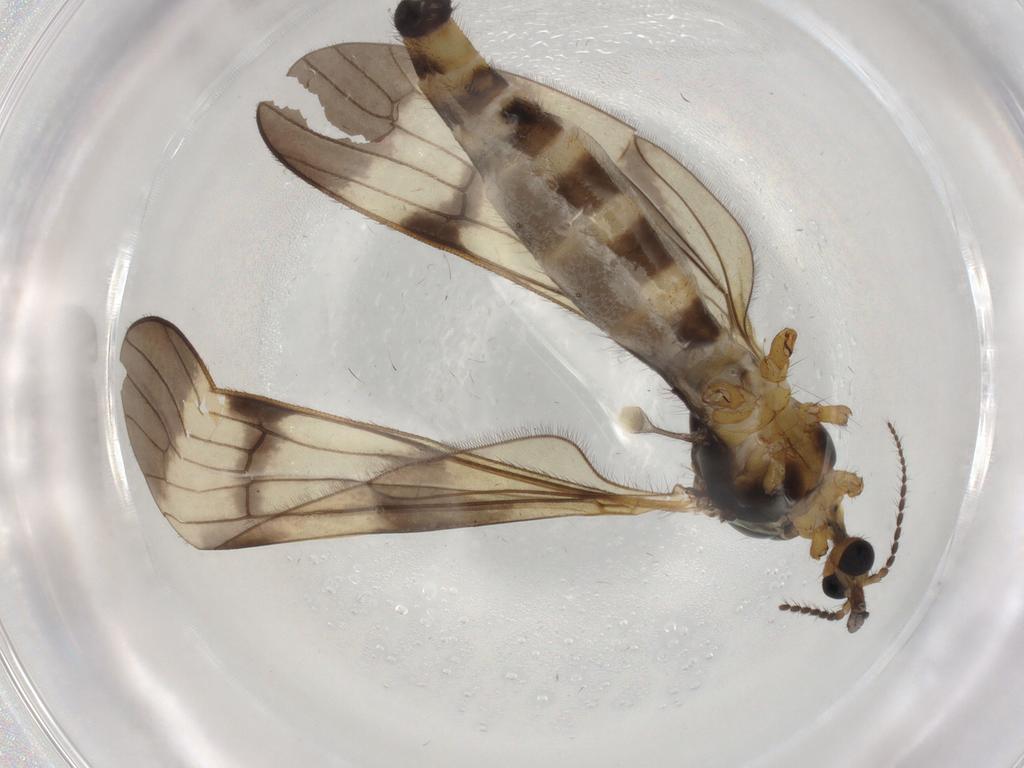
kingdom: Animalia
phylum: Arthropoda
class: Insecta
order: Diptera
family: Limoniidae
